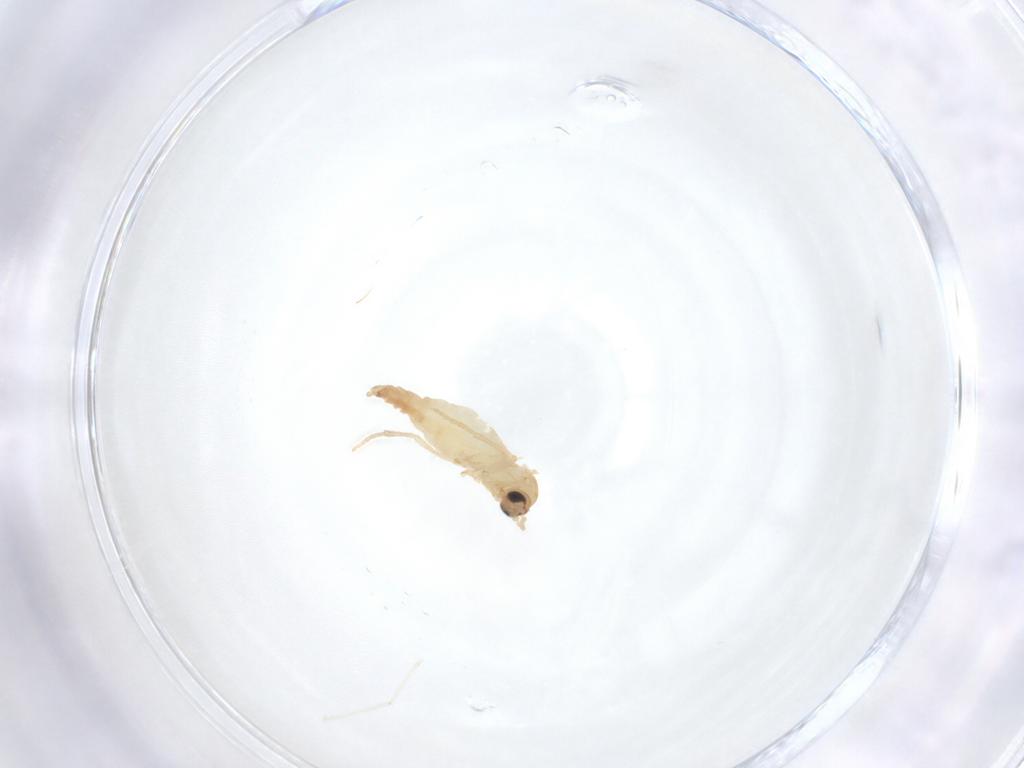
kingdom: Animalia
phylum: Arthropoda
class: Insecta
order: Diptera
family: Sciaridae
